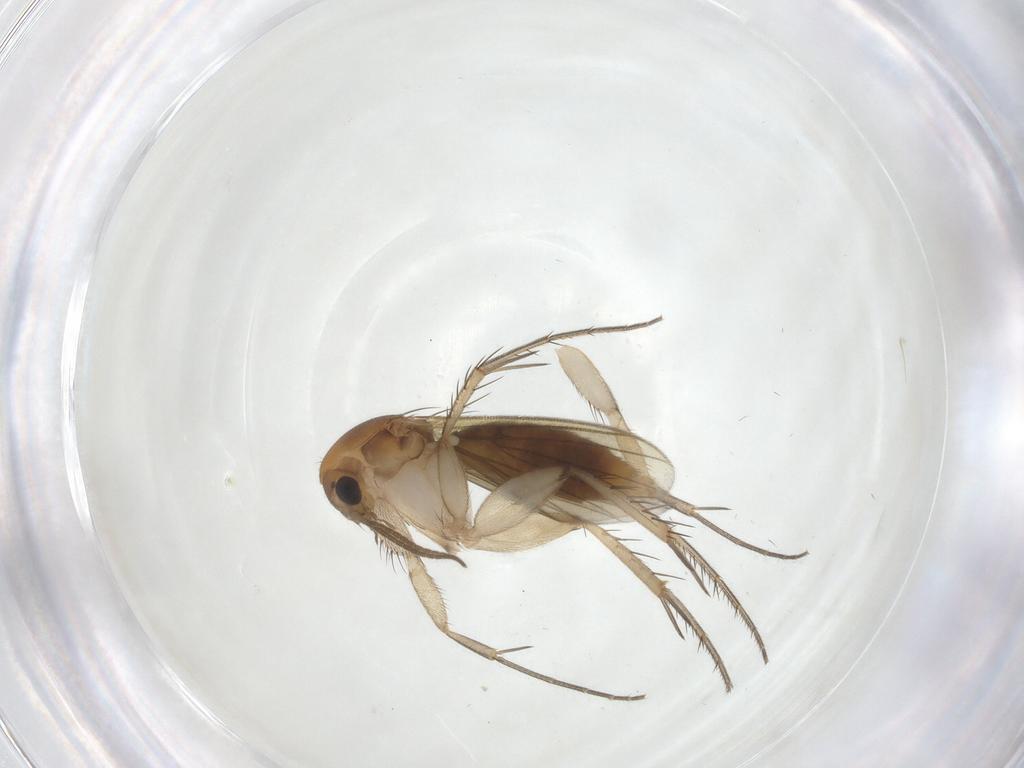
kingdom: Animalia
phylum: Arthropoda
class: Insecta
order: Diptera
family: Mycetophilidae
